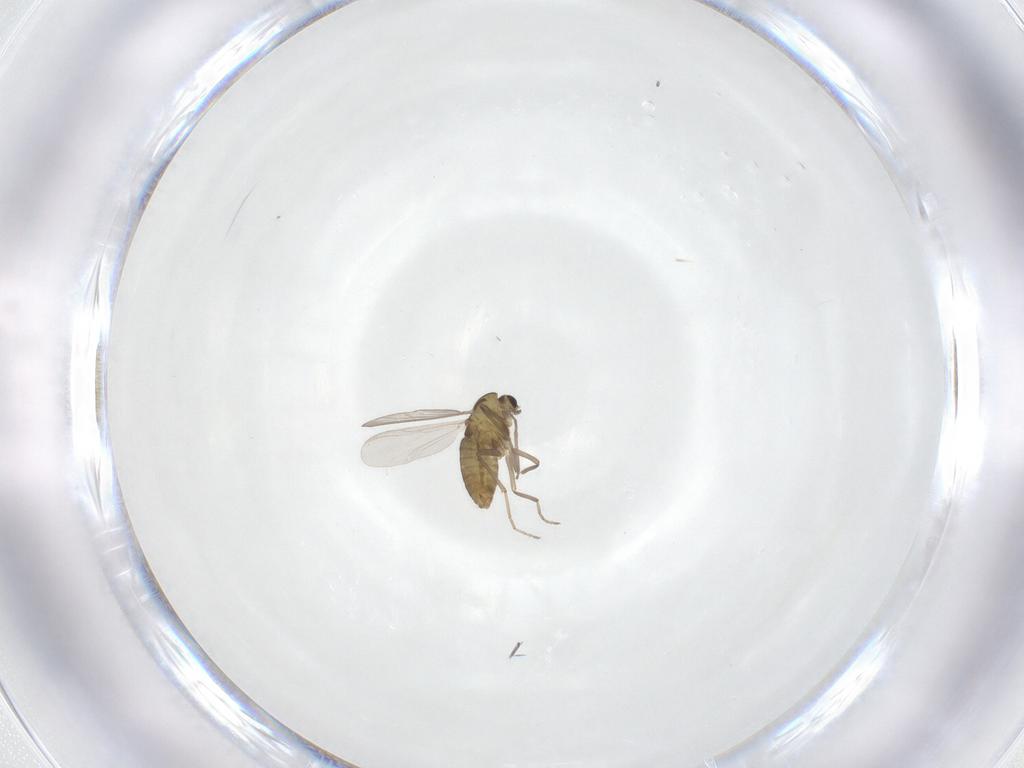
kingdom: Animalia
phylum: Arthropoda
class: Insecta
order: Diptera
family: Chironomidae
